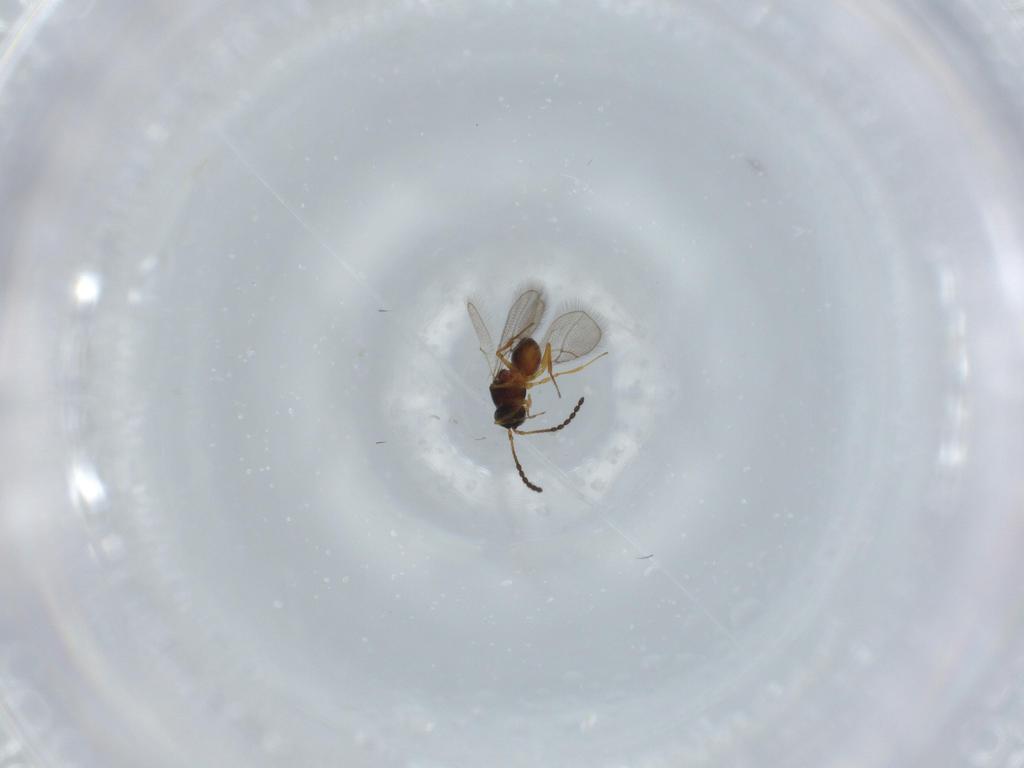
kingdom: Animalia
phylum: Arthropoda
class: Insecta
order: Hymenoptera
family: Figitidae
